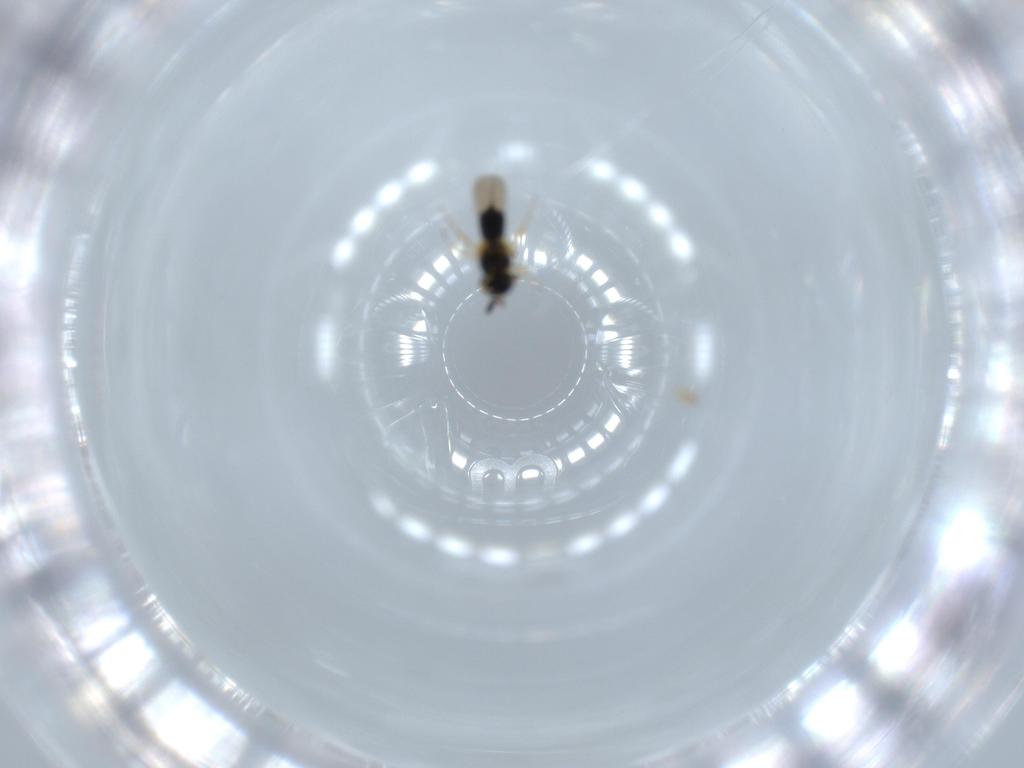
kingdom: Animalia
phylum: Arthropoda
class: Insecta
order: Hymenoptera
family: Scelionidae
